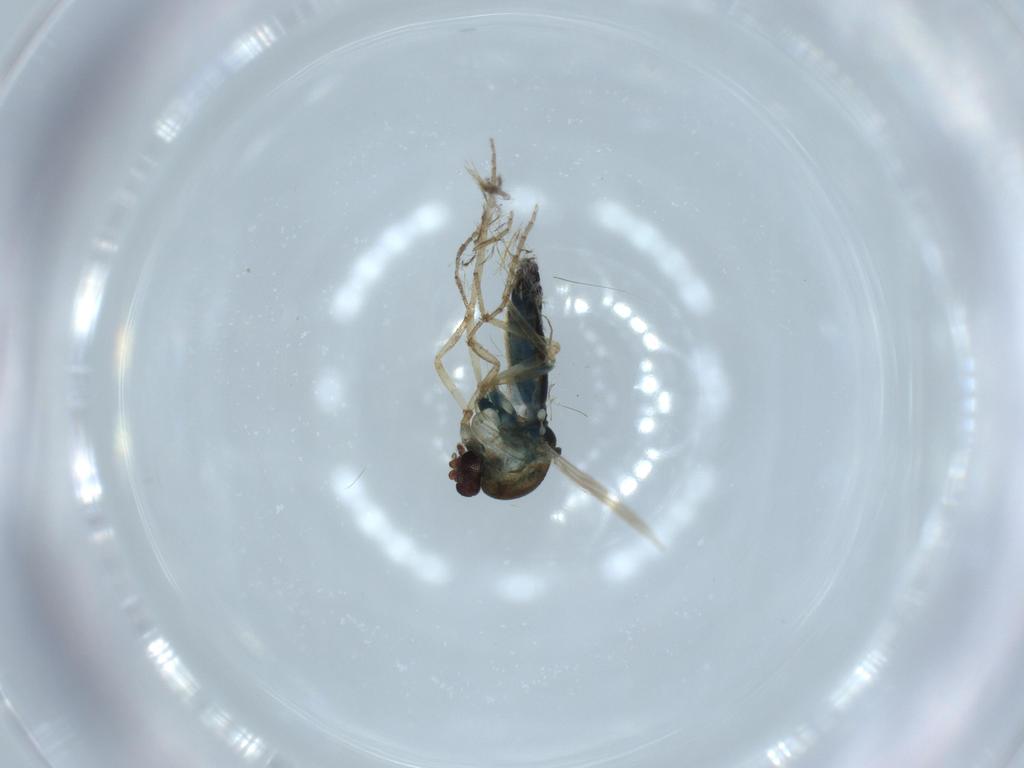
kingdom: Animalia
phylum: Arthropoda
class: Insecta
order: Diptera
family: Ceratopogonidae
